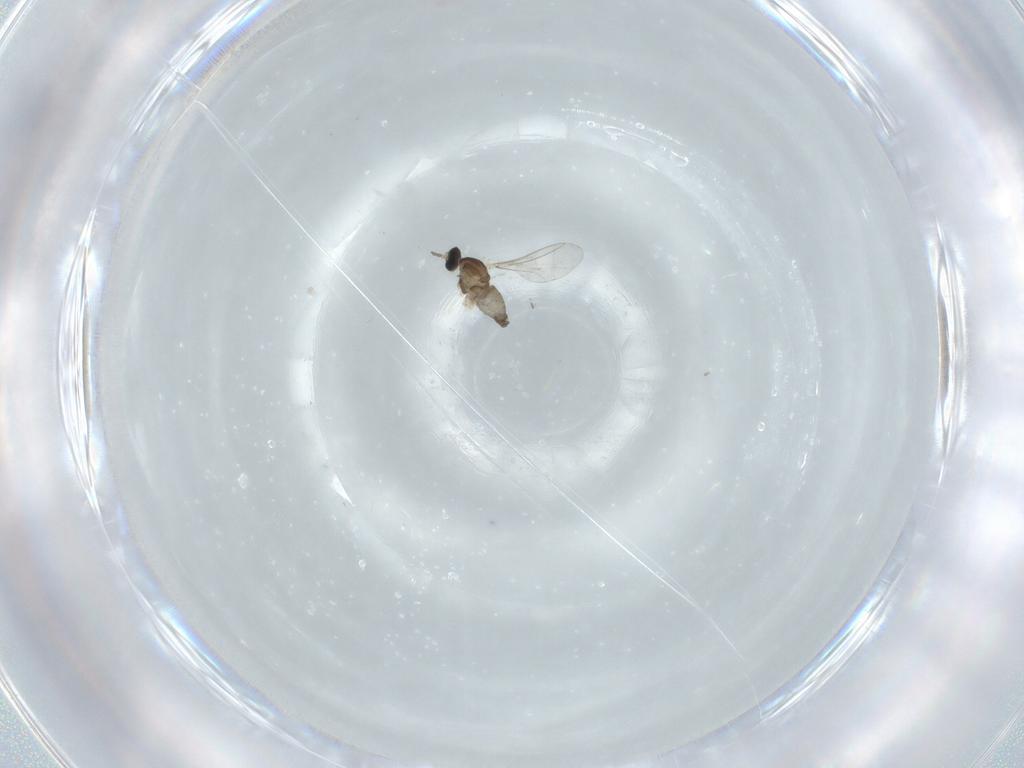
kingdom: Animalia
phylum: Arthropoda
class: Insecta
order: Diptera
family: Cecidomyiidae
